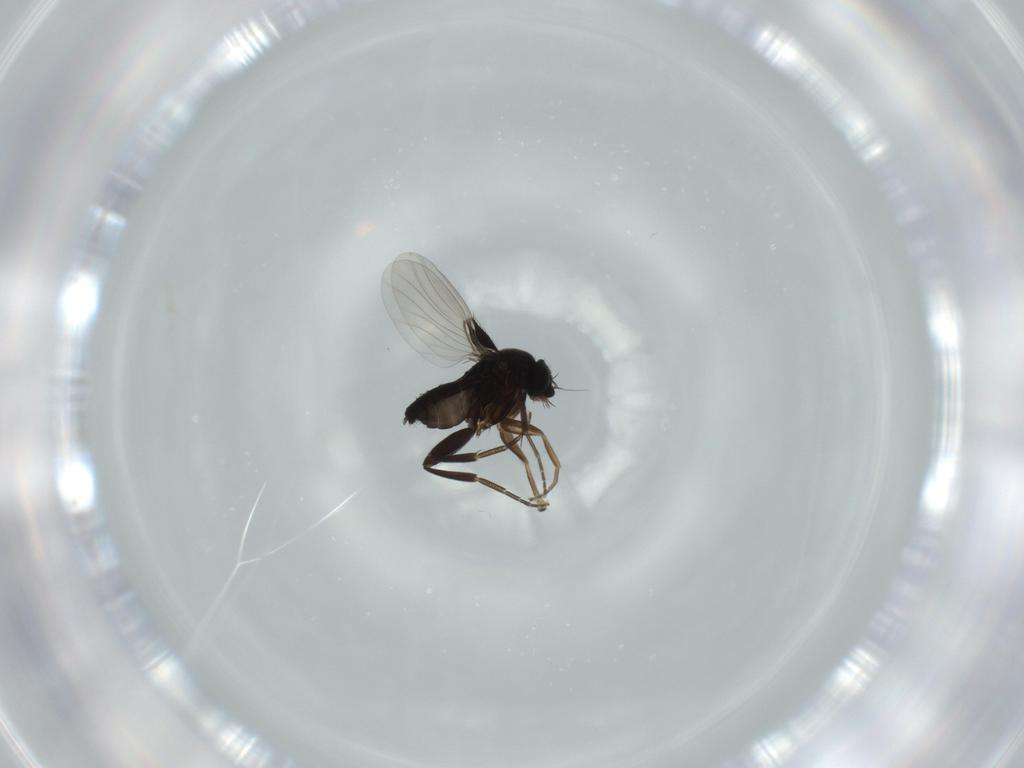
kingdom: Animalia
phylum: Arthropoda
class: Insecta
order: Diptera
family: Phoridae
